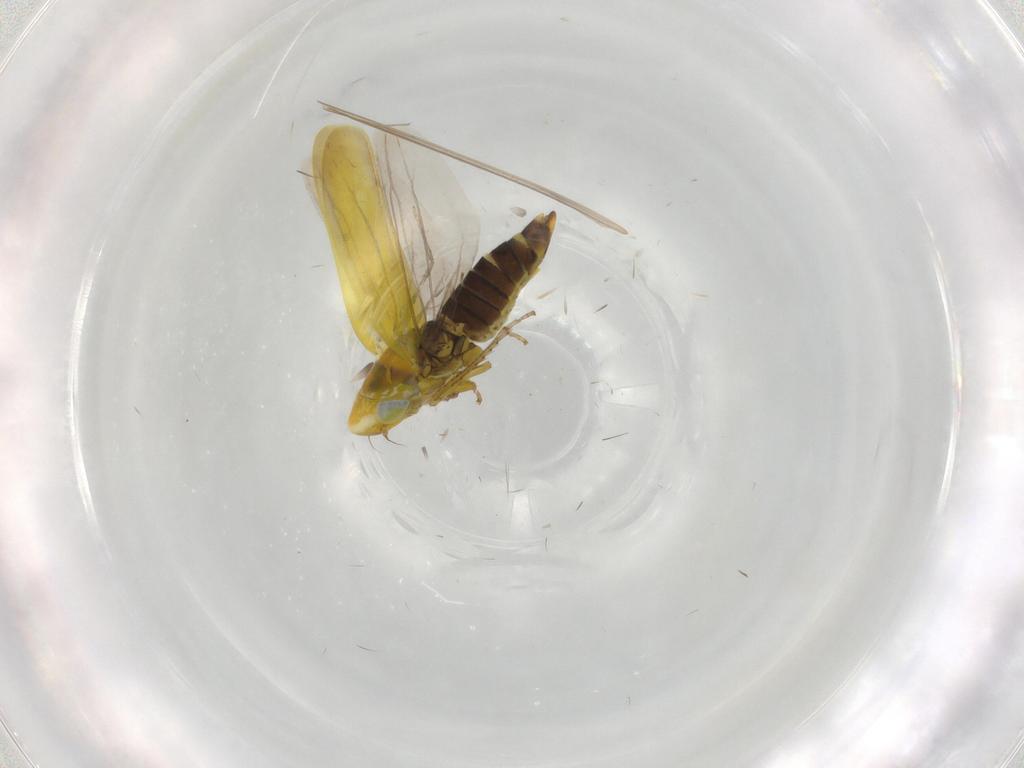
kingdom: Animalia
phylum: Arthropoda
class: Insecta
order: Hemiptera
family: Cicadellidae
